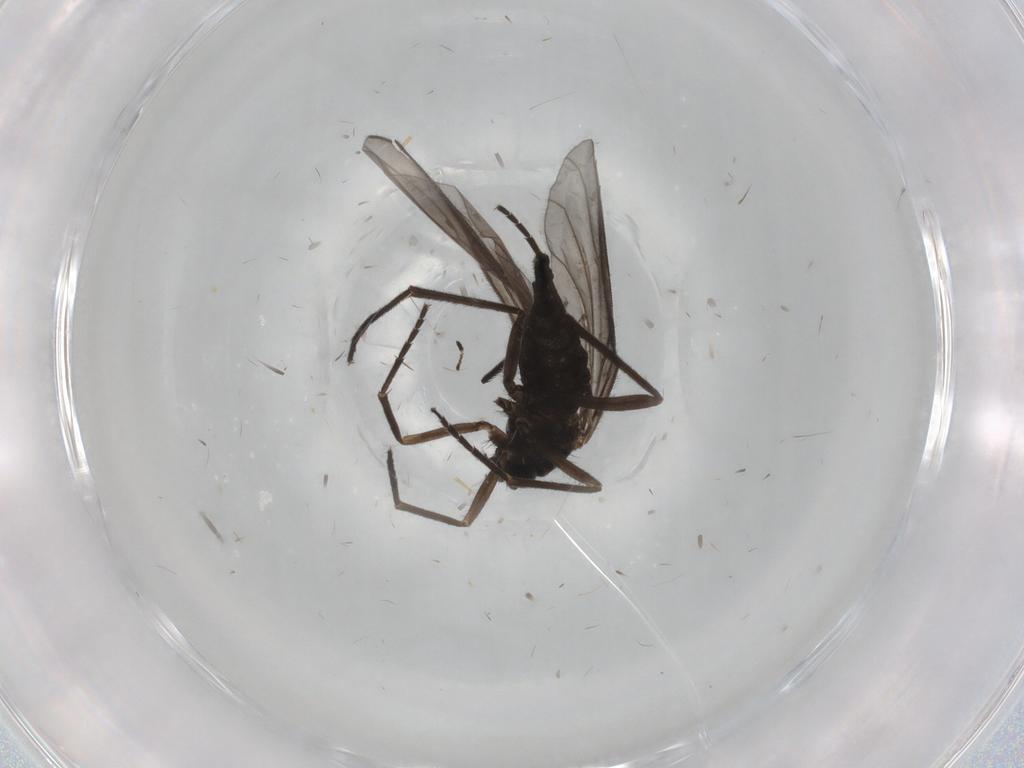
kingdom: Animalia
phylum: Arthropoda
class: Insecta
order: Diptera
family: Sciaridae
